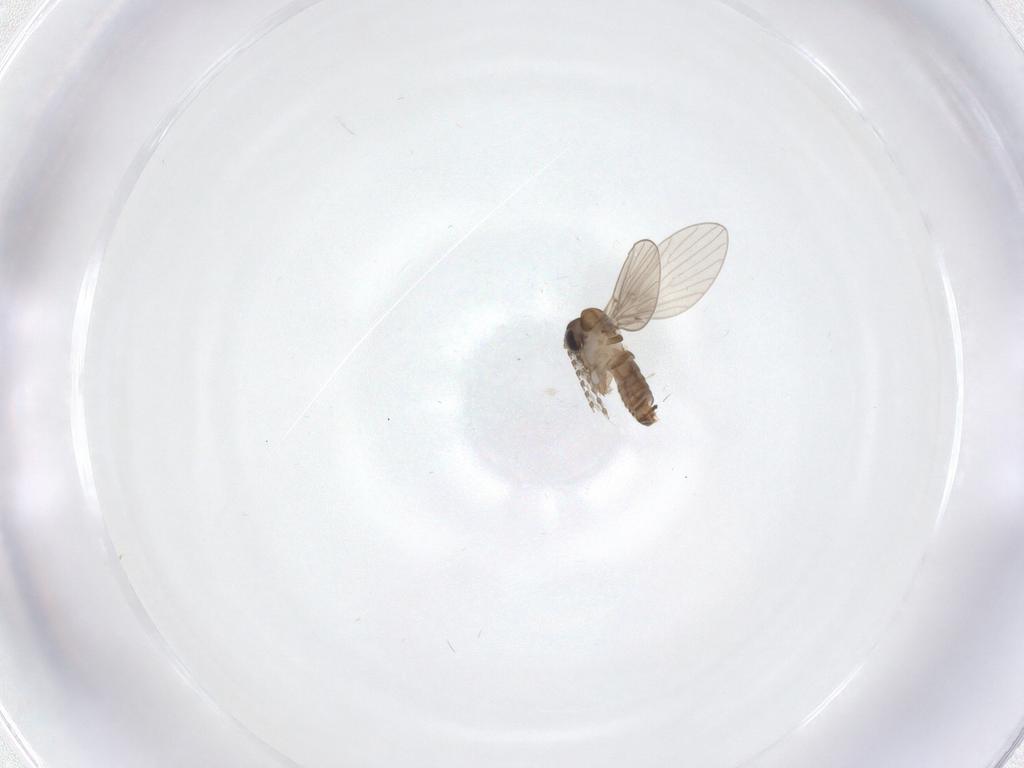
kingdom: Animalia
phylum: Arthropoda
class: Insecta
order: Diptera
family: Psychodidae
